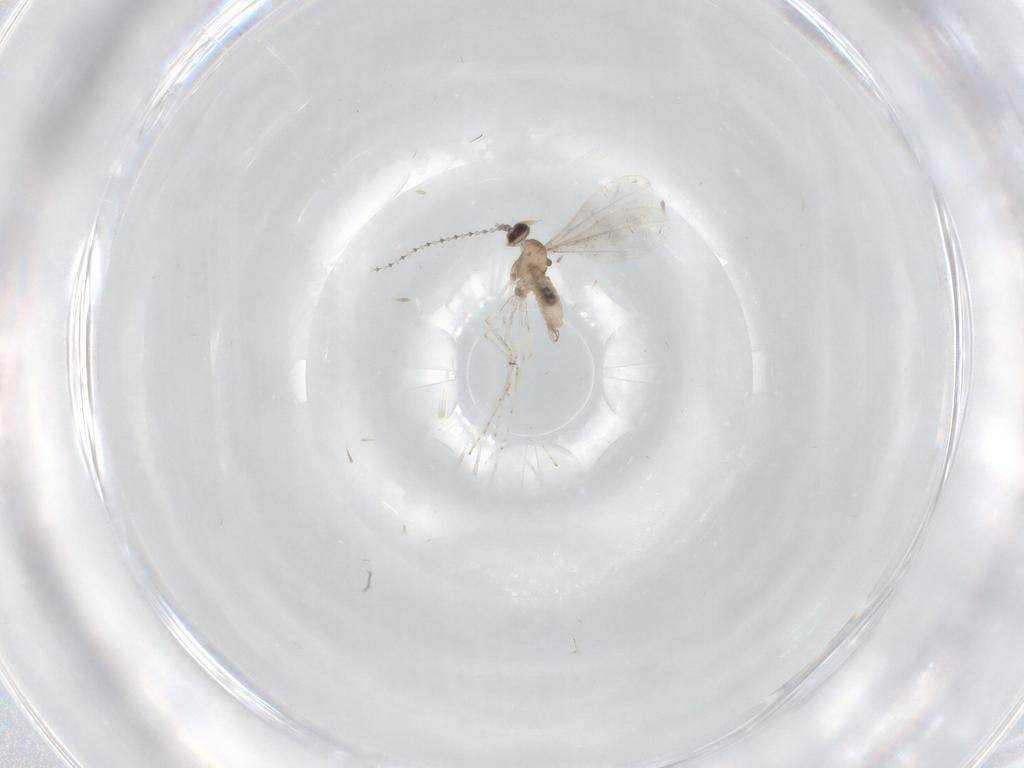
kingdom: Animalia
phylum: Arthropoda
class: Insecta
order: Diptera
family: Cecidomyiidae
